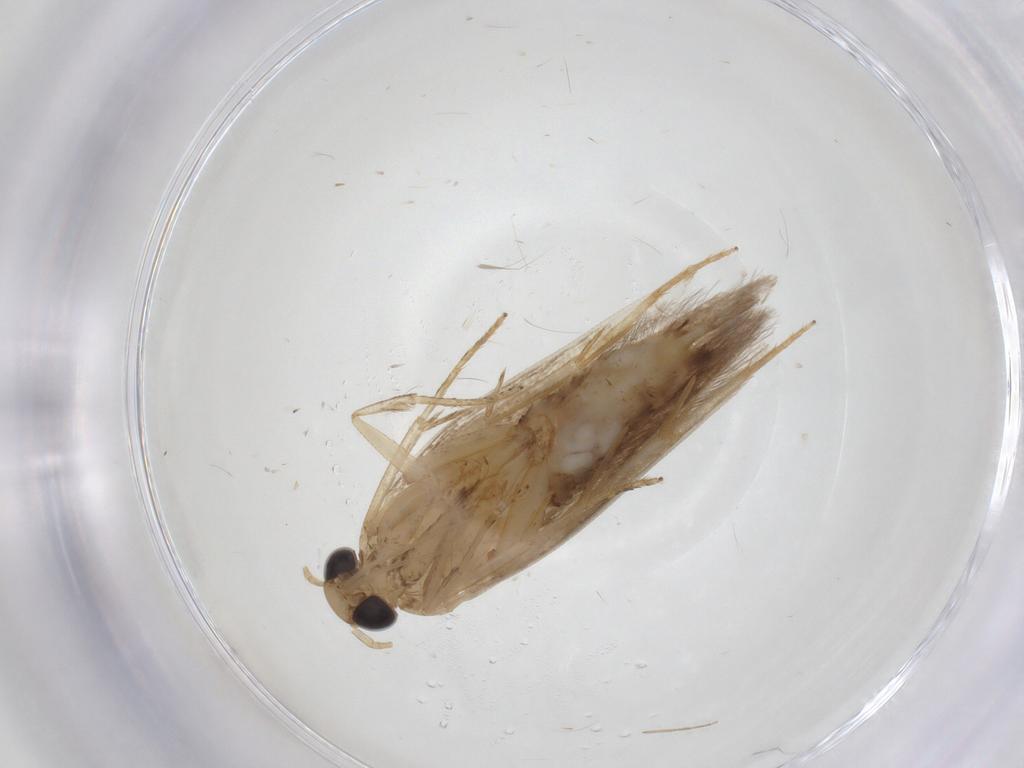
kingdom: Animalia
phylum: Arthropoda
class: Insecta
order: Lepidoptera
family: Gelechiidae
